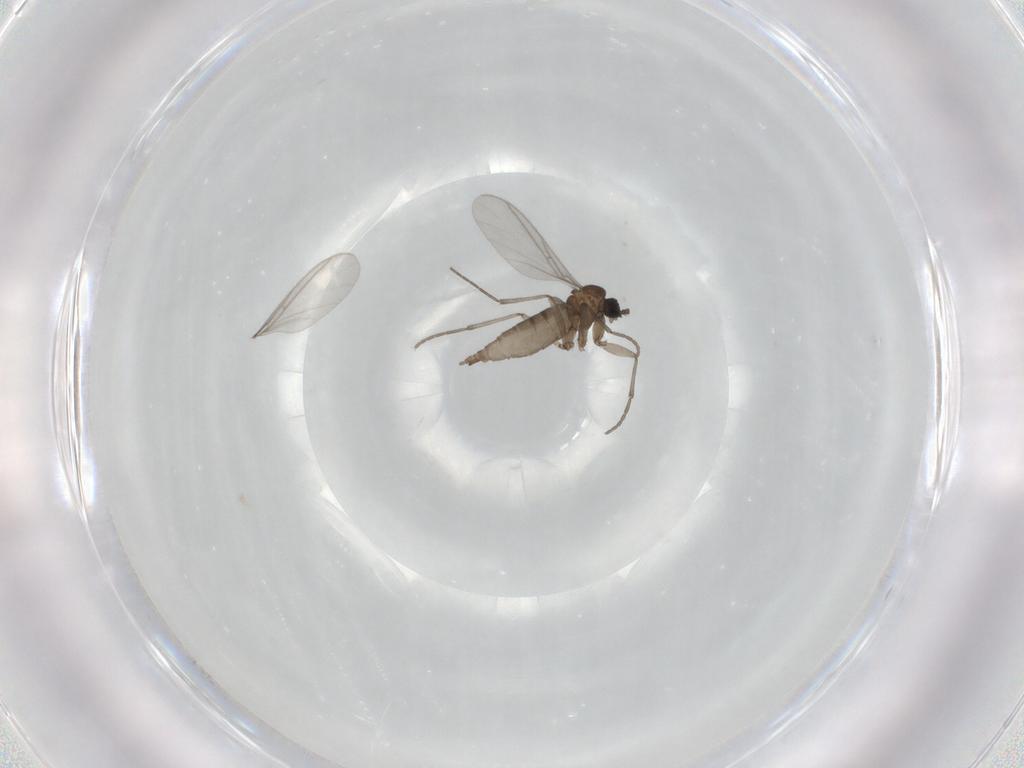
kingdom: Animalia
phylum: Arthropoda
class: Insecta
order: Diptera
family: Sciaridae
